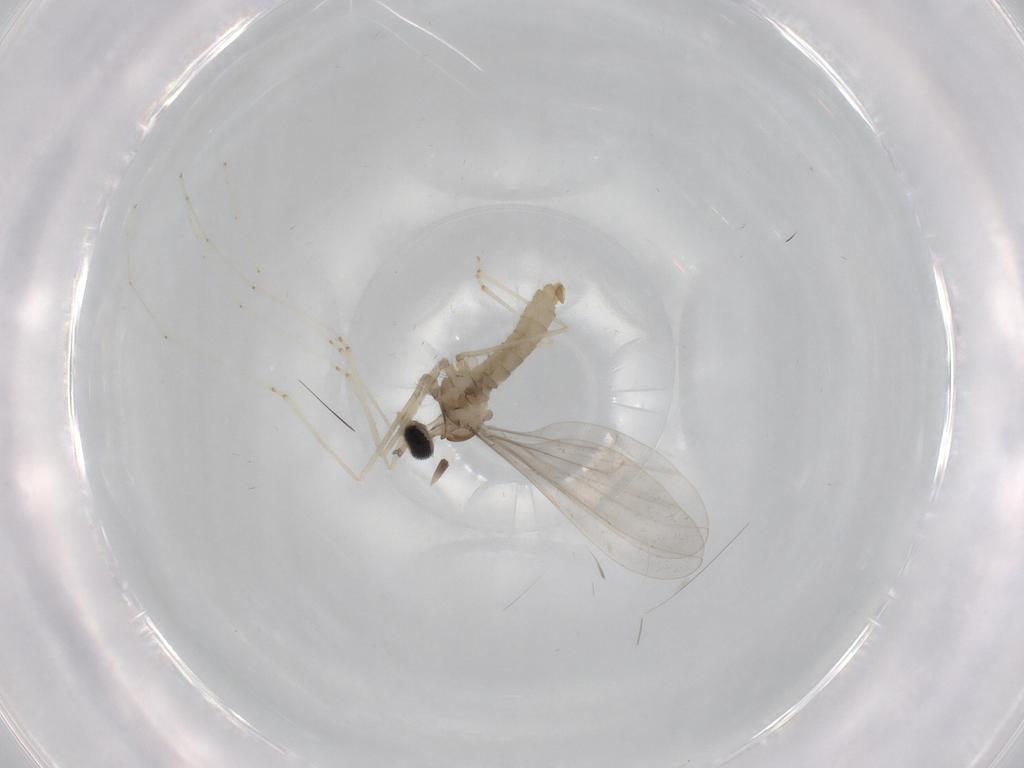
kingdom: Animalia
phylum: Arthropoda
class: Insecta
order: Diptera
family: Cecidomyiidae
